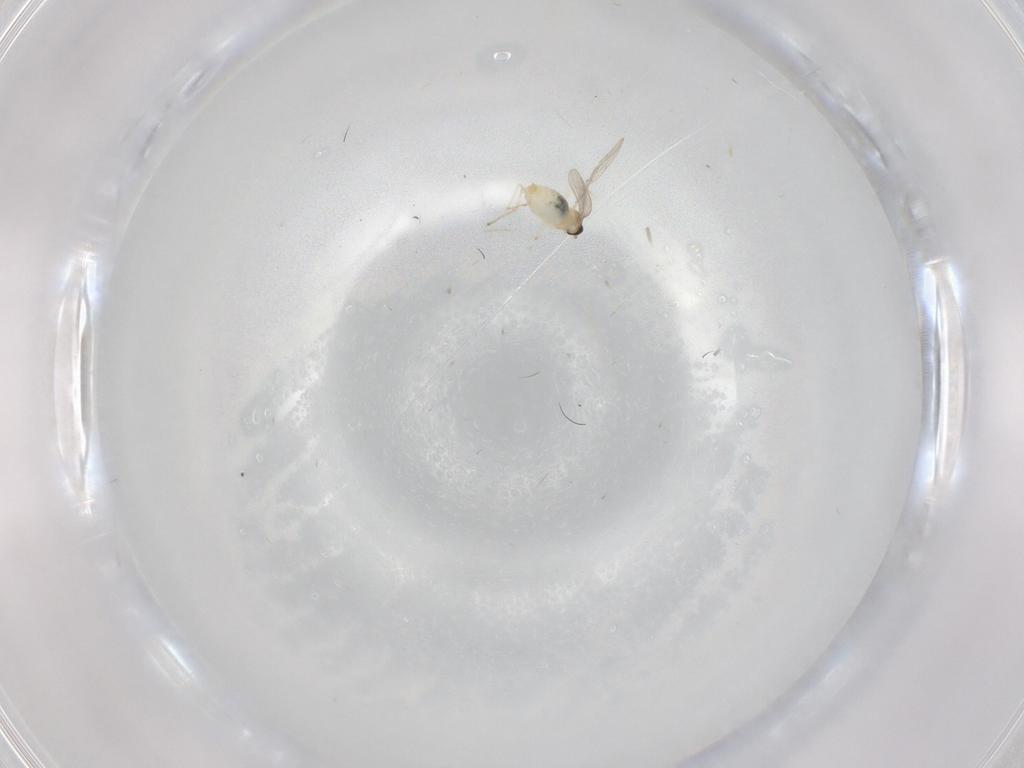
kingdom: Animalia
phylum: Arthropoda
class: Insecta
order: Diptera
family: Cecidomyiidae
